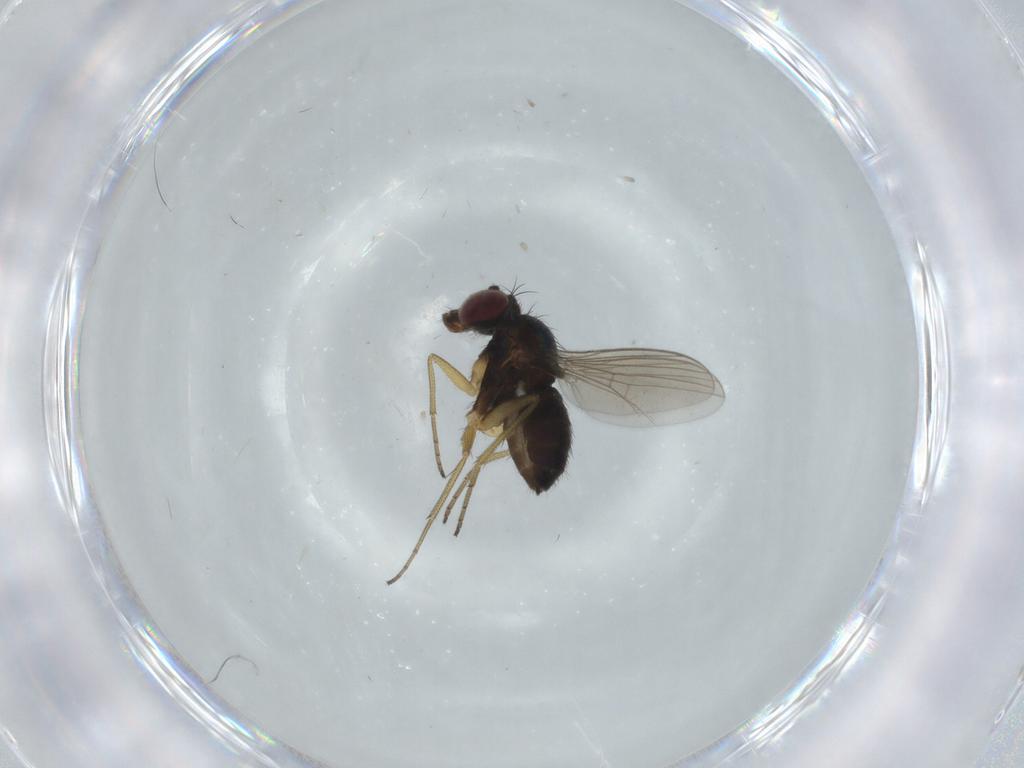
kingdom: Animalia
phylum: Arthropoda
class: Insecta
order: Diptera
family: Dolichopodidae
